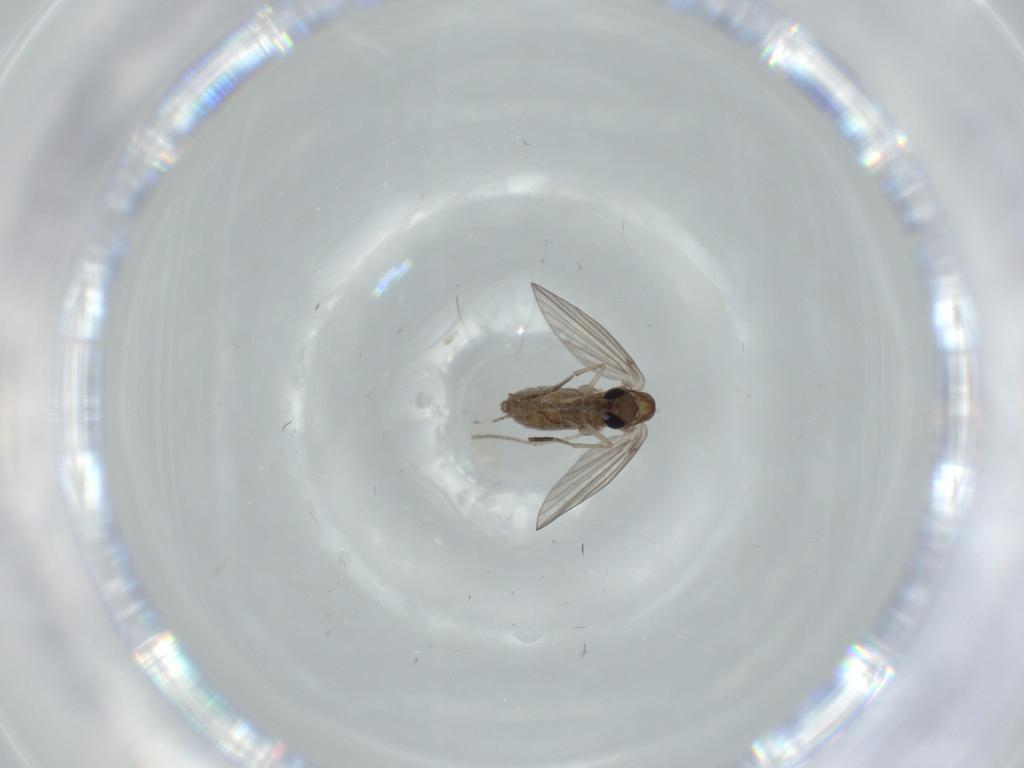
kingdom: Animalia
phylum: Arthropoda
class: Insecta
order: Diptera
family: Psychodidae
